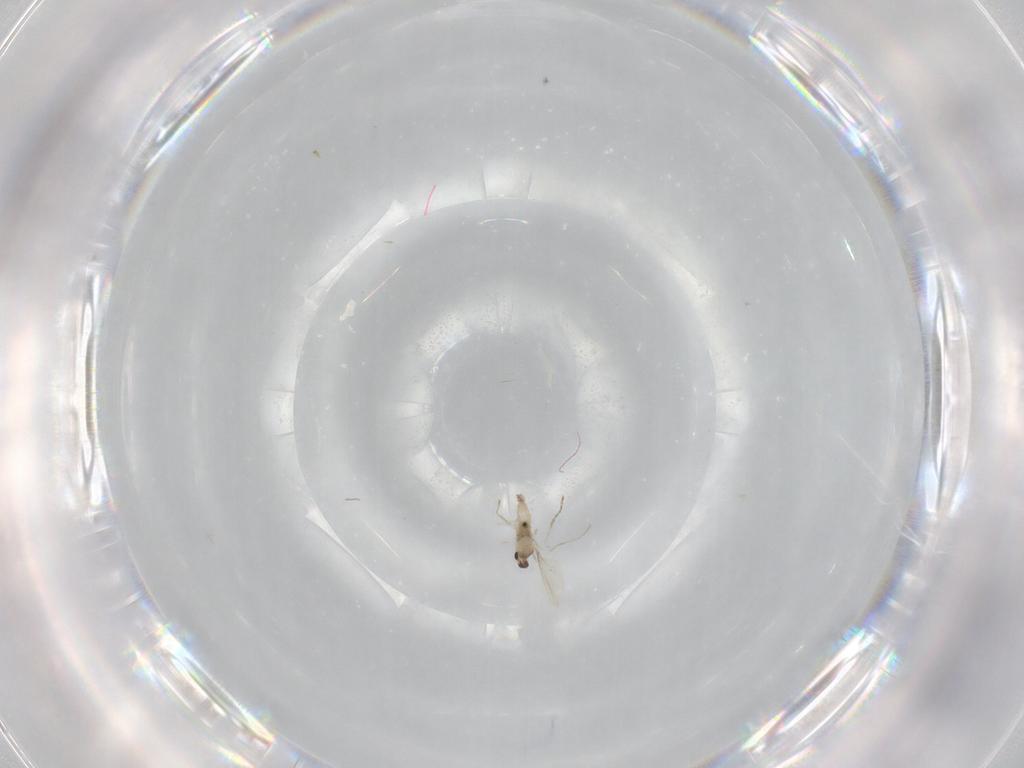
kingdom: Animalia
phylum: Arthropoda
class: Insecta
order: Diptera
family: Cecidomyiidae
